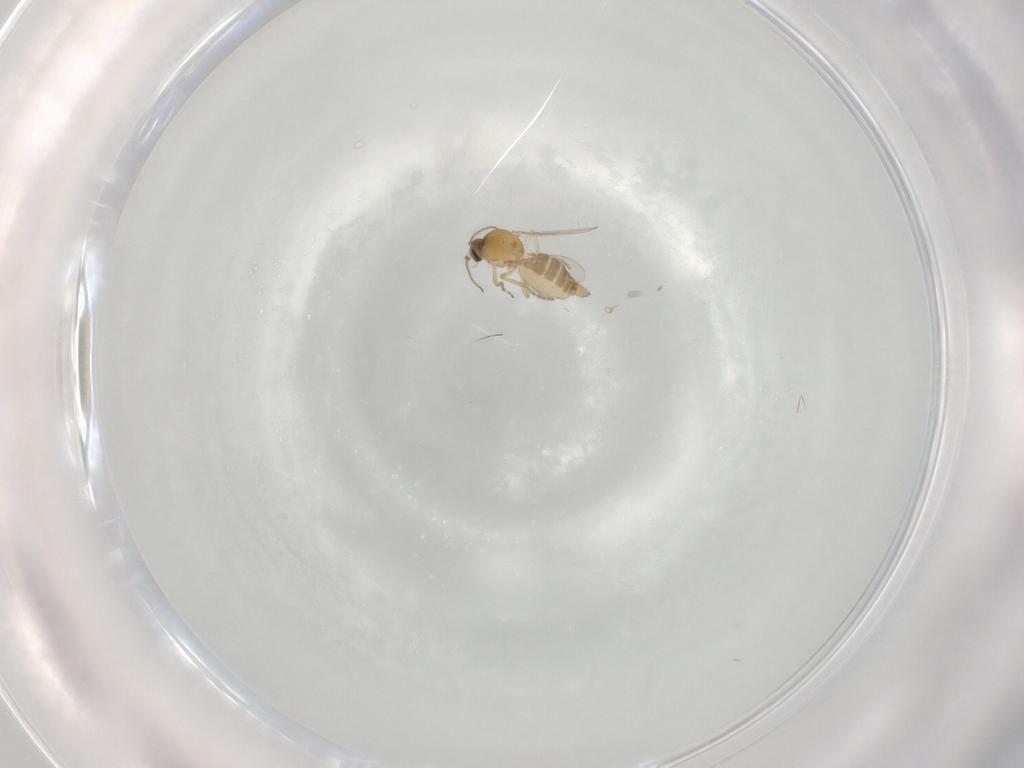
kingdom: Animalia
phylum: Arthropoda
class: Insecta
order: Diptera
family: Ceratopogonidae
